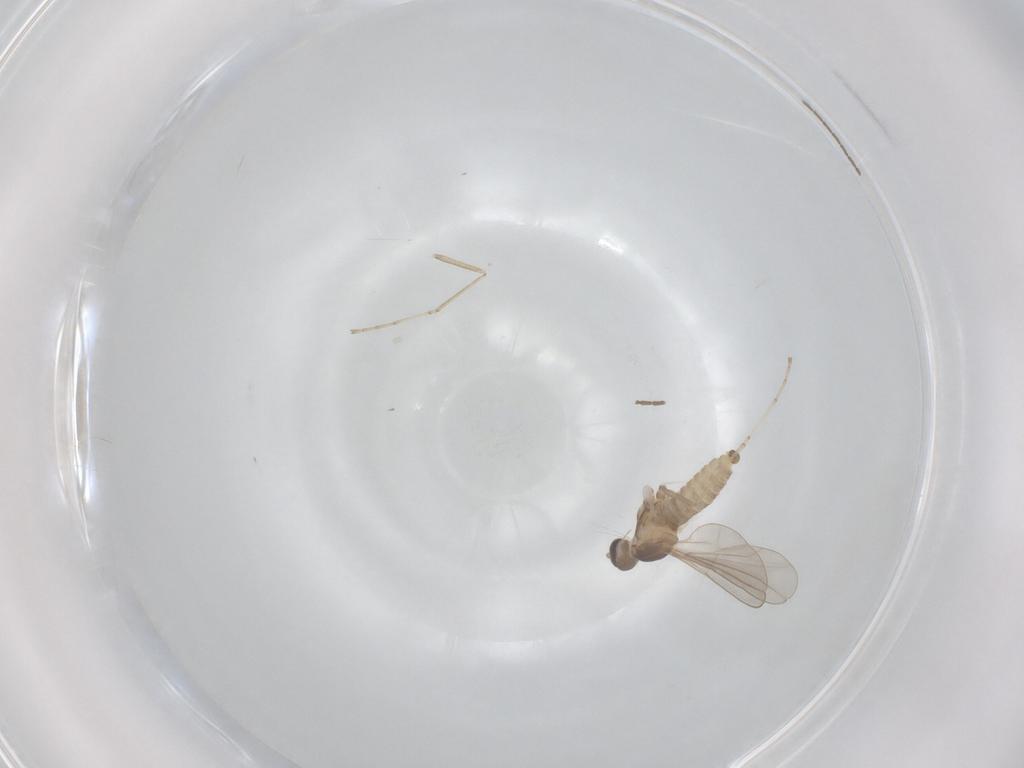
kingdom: Animalia
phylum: Arthropoda
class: Insecta
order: Diptera
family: Cecidomyiidae
